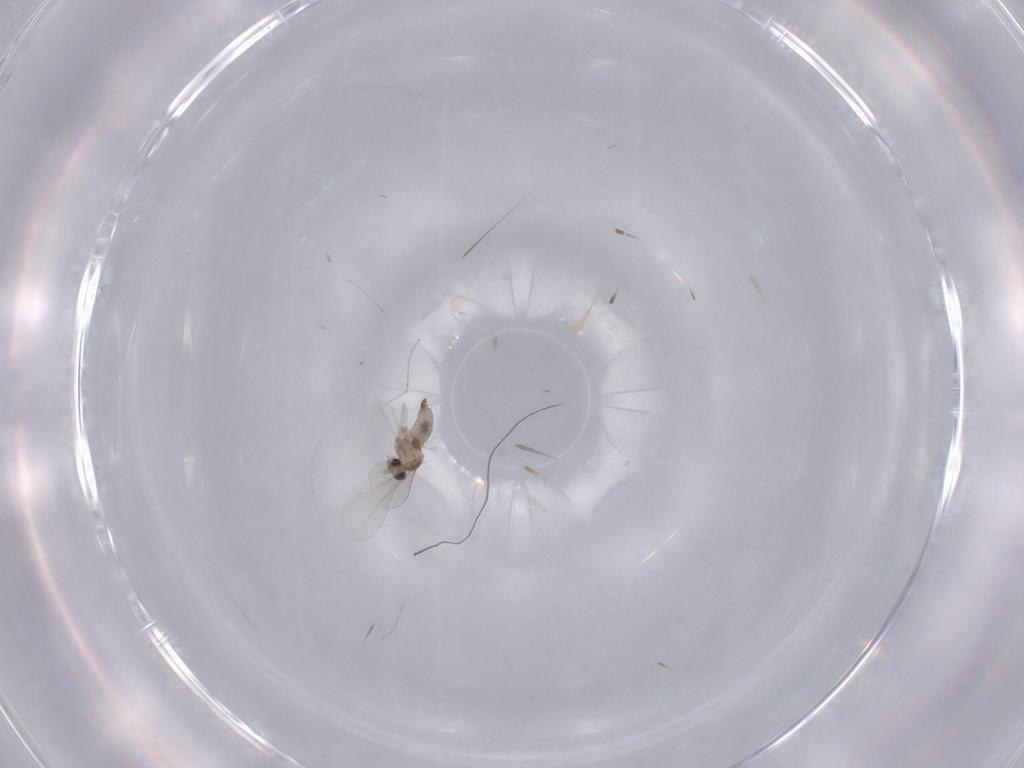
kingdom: Animalia
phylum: Arthropoda
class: Insecta
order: Diptera
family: Cecidomyiidae
